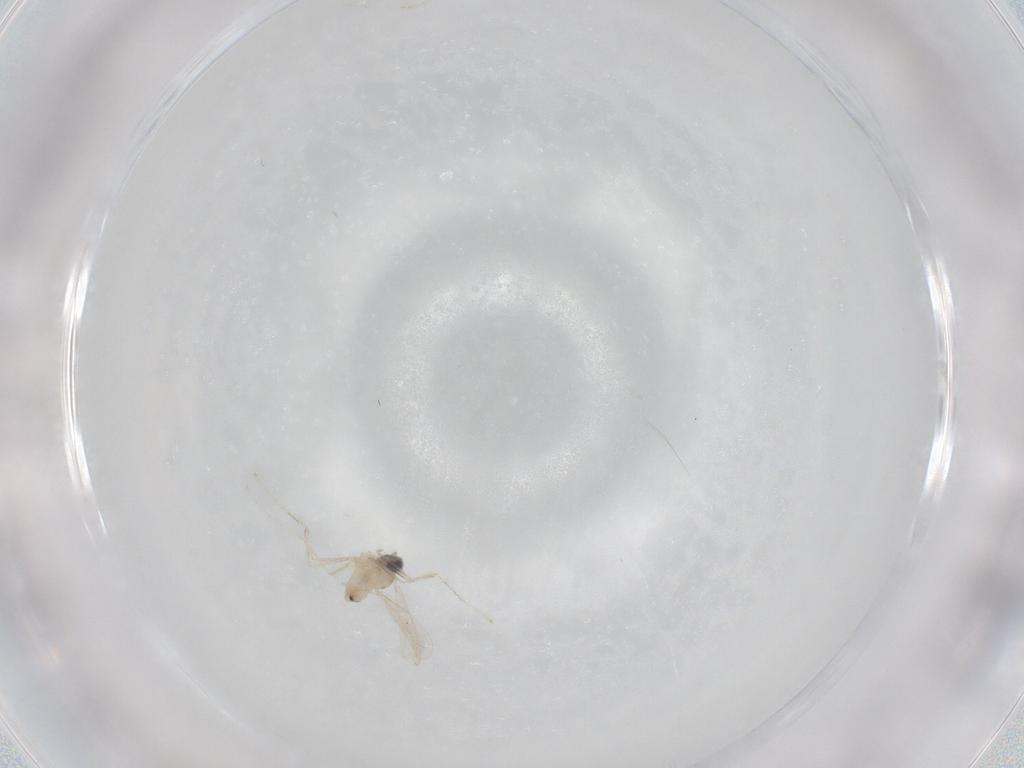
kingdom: Animalia
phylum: Arthropoda
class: Insecta
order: Diptera
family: Cecidomyiidae
